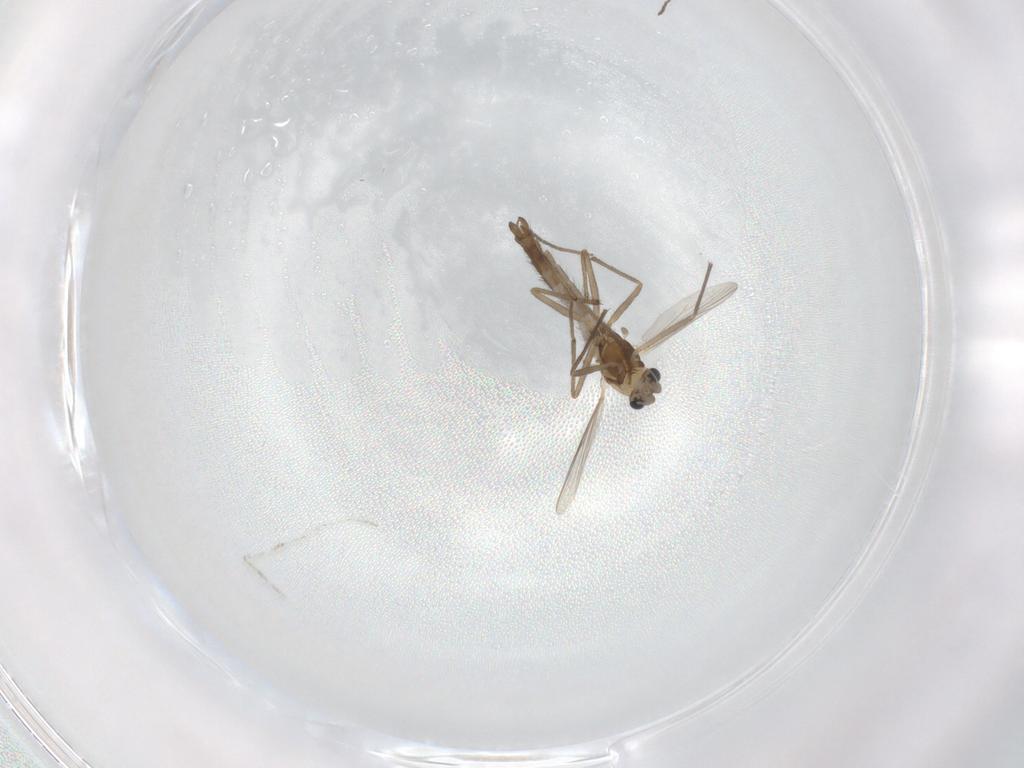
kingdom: Animalia
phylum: Arthropoda
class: Insecta
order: Diptera
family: Chironomidae
